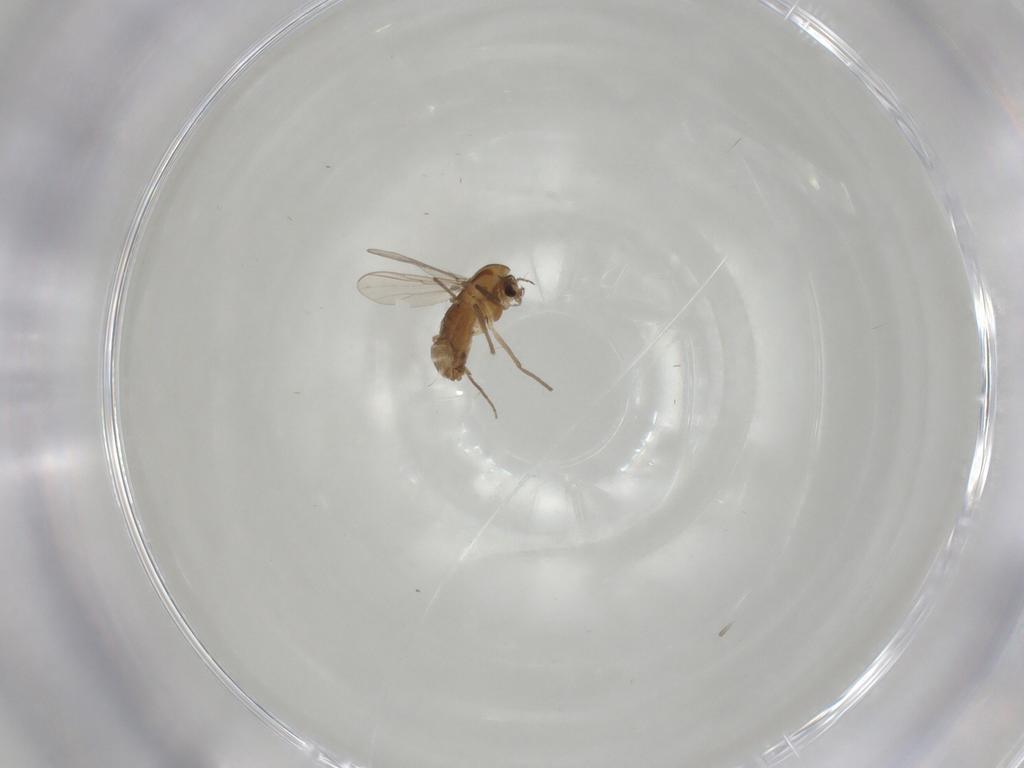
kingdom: Animalia
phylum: Arthropoda
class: Insecta
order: Diptera
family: Chironomidae
